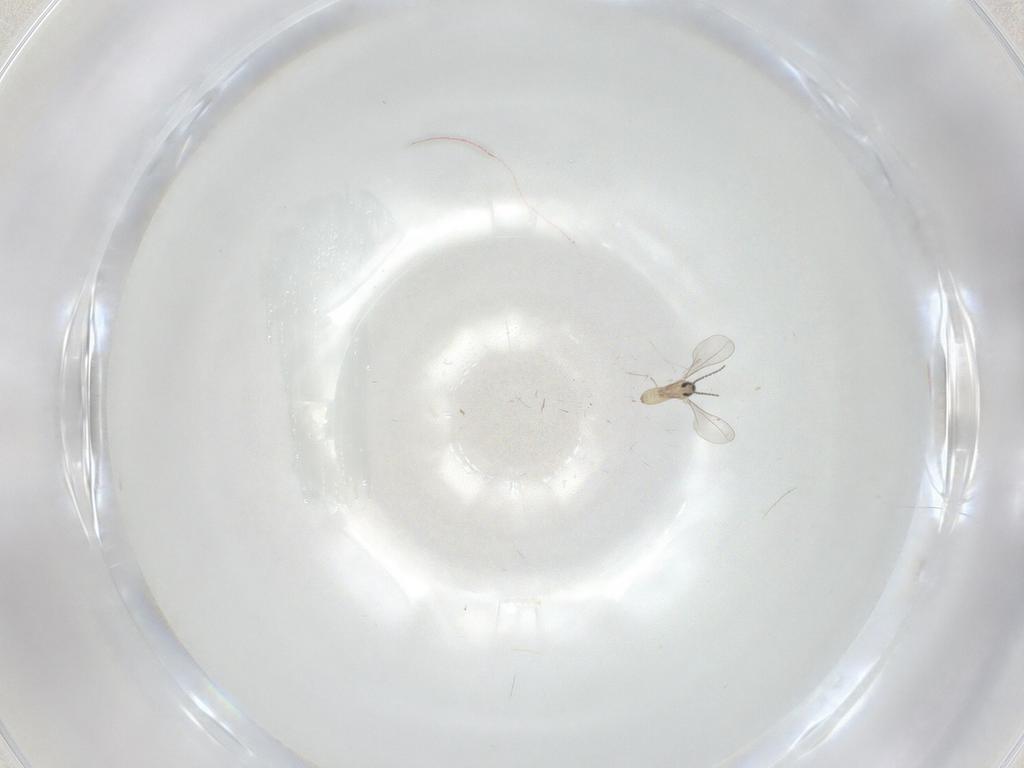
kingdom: Animalia
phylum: Arthropoda
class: Insecta
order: Diptera
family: Cecidomyiidae
